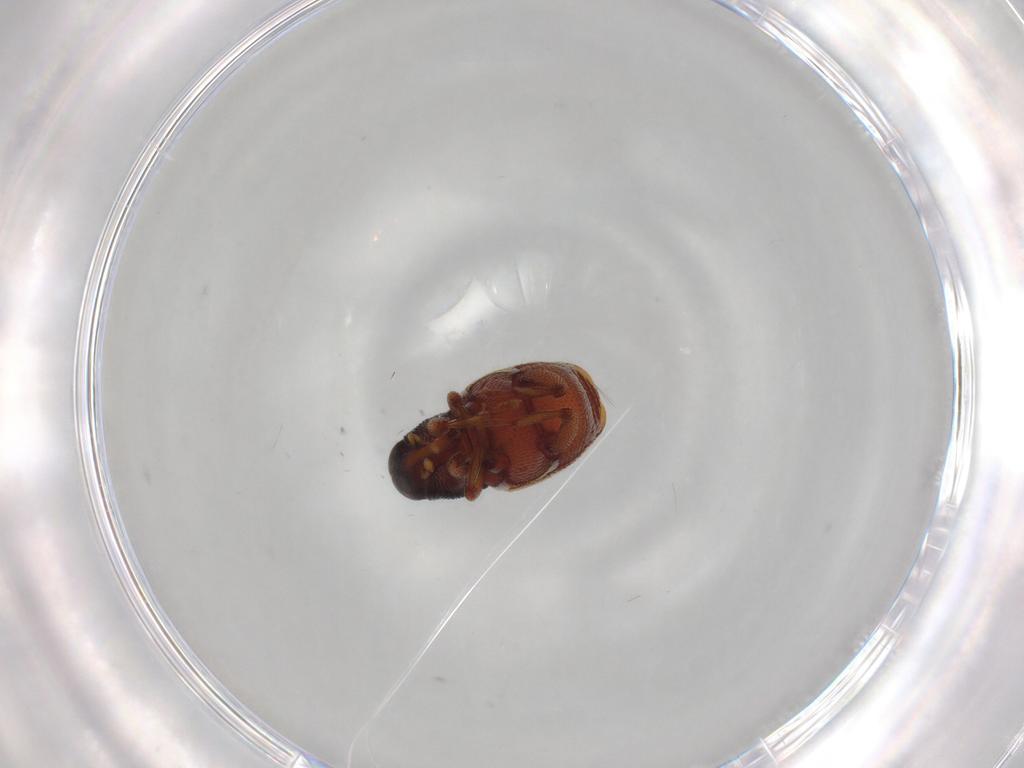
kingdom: Animalia
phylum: Arthropoda
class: Insecta
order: Coleoptera
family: Curculionidae
